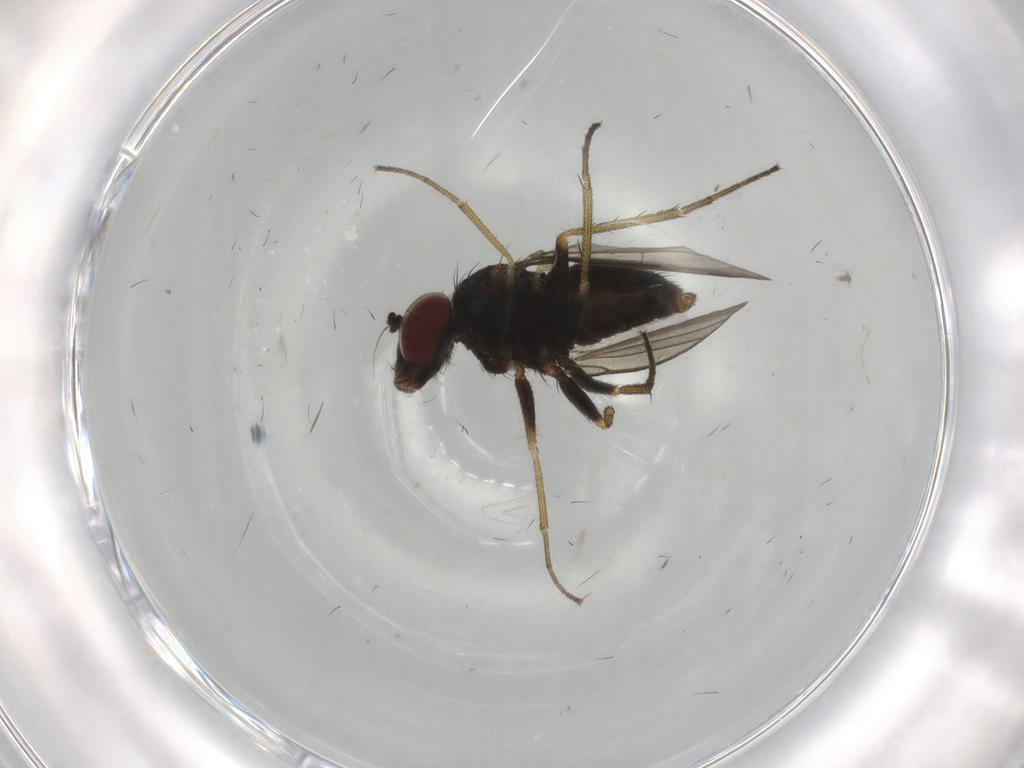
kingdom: Animalia
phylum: Arthropoda
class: Insecta
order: Diptera
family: Dolichopodidae
